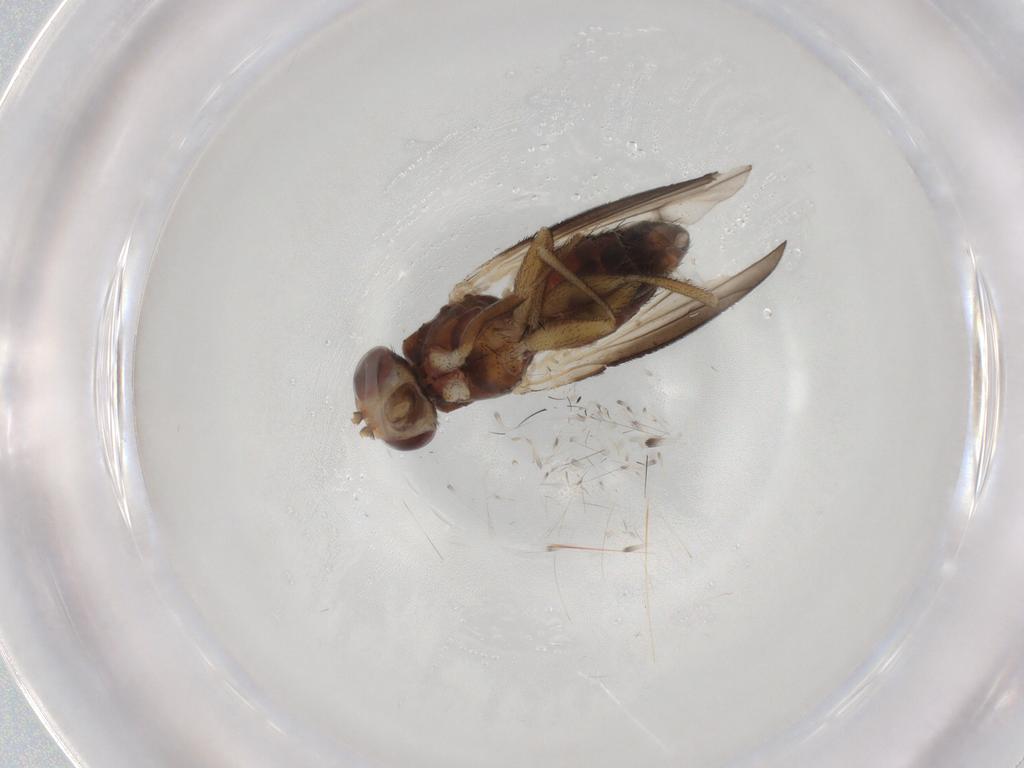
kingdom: Animalia
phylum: Arthropoda
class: Insecta
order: Diptera
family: Heleomyzidae
